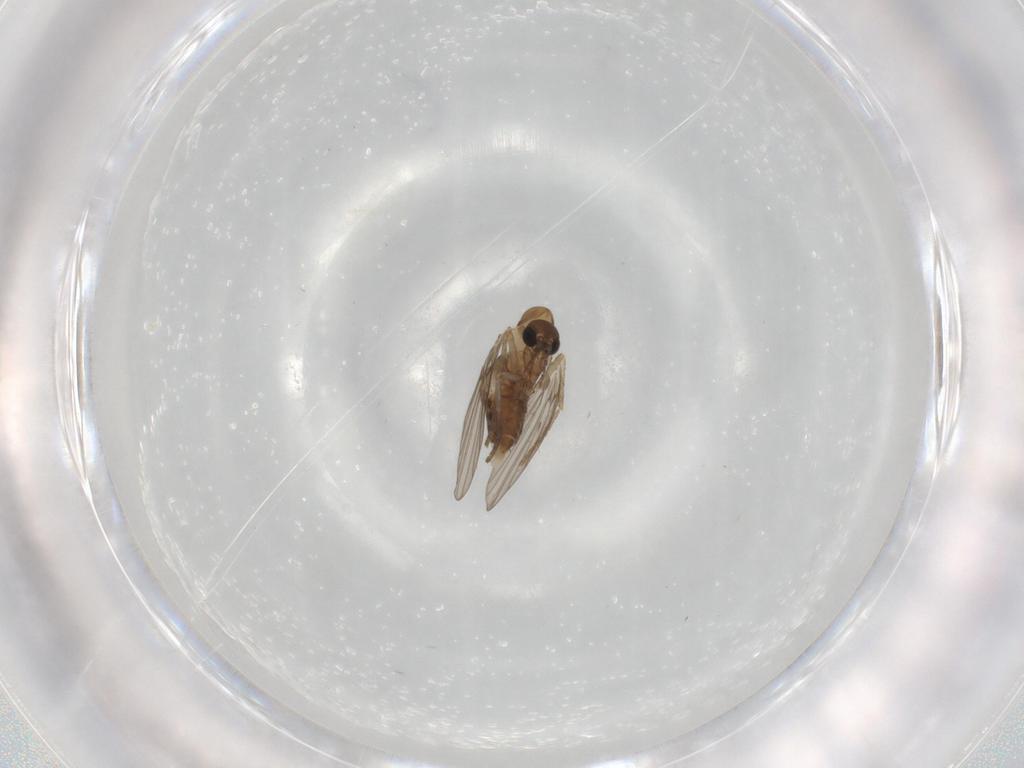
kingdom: Animalia
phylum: Arthropoda
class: Insecta
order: Diptera
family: Psychodidae
